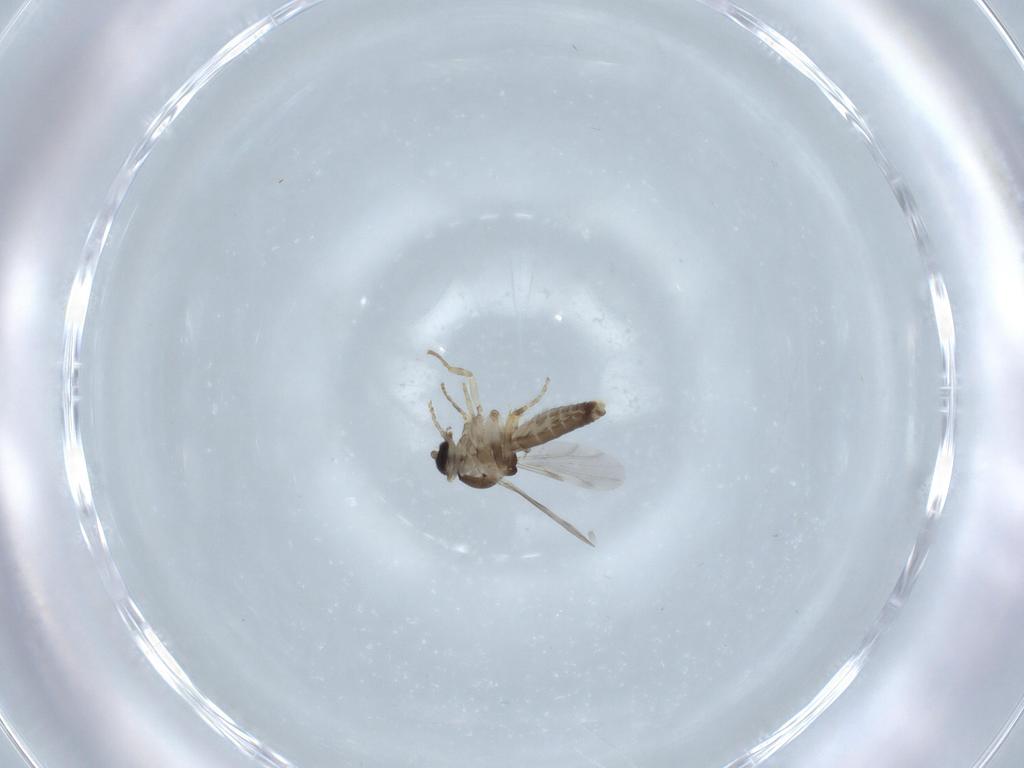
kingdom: Animalia
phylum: Arthropoda
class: Insecta
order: Diptera
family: Ceratopogonidae
